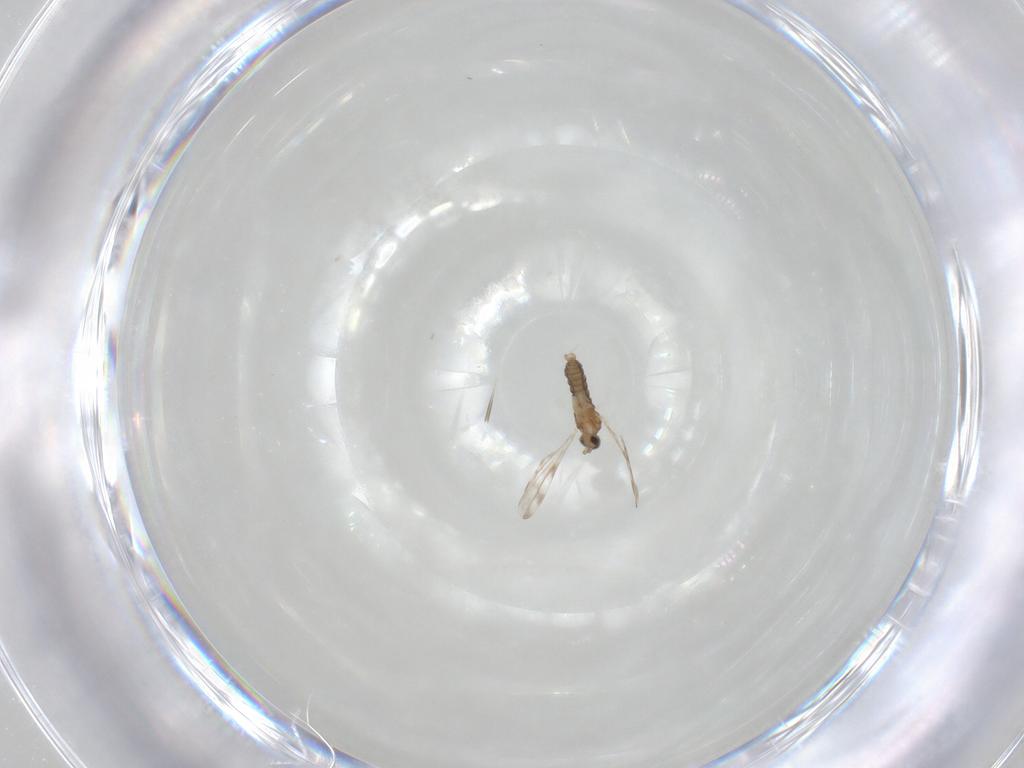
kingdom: Animalia
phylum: Arthropoda
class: Insecta
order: Diptera
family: Cecidomyiidae
